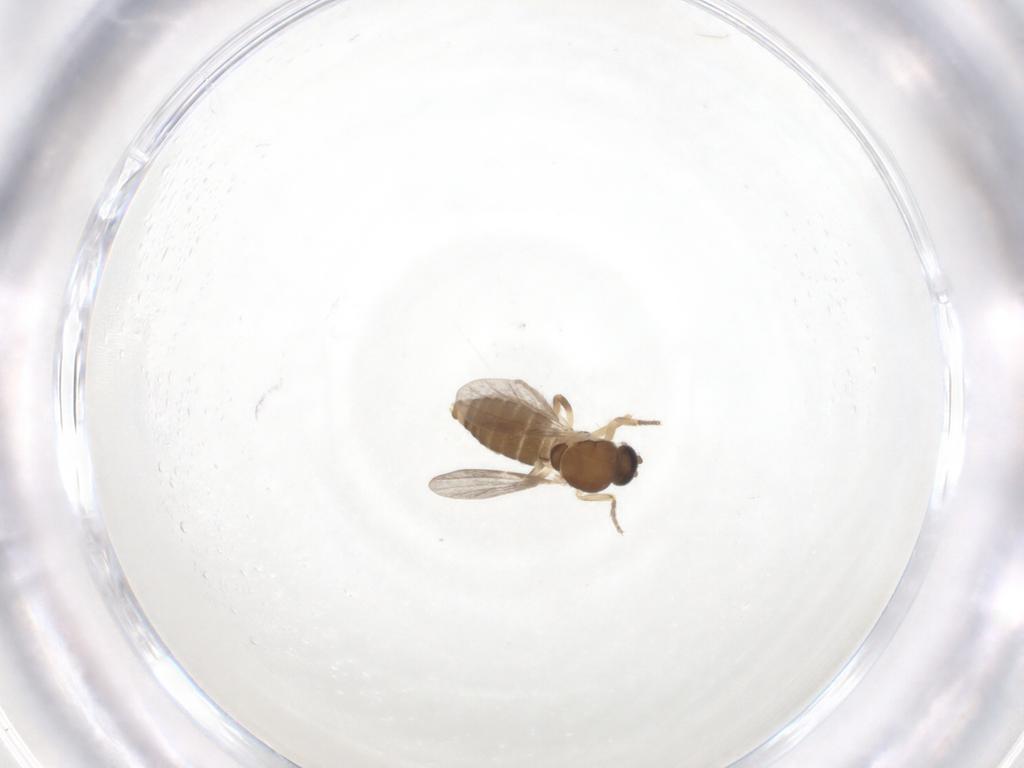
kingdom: Animalia
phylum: Arthropoda
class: Insecta
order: Diptera
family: Ceratopogonidae
